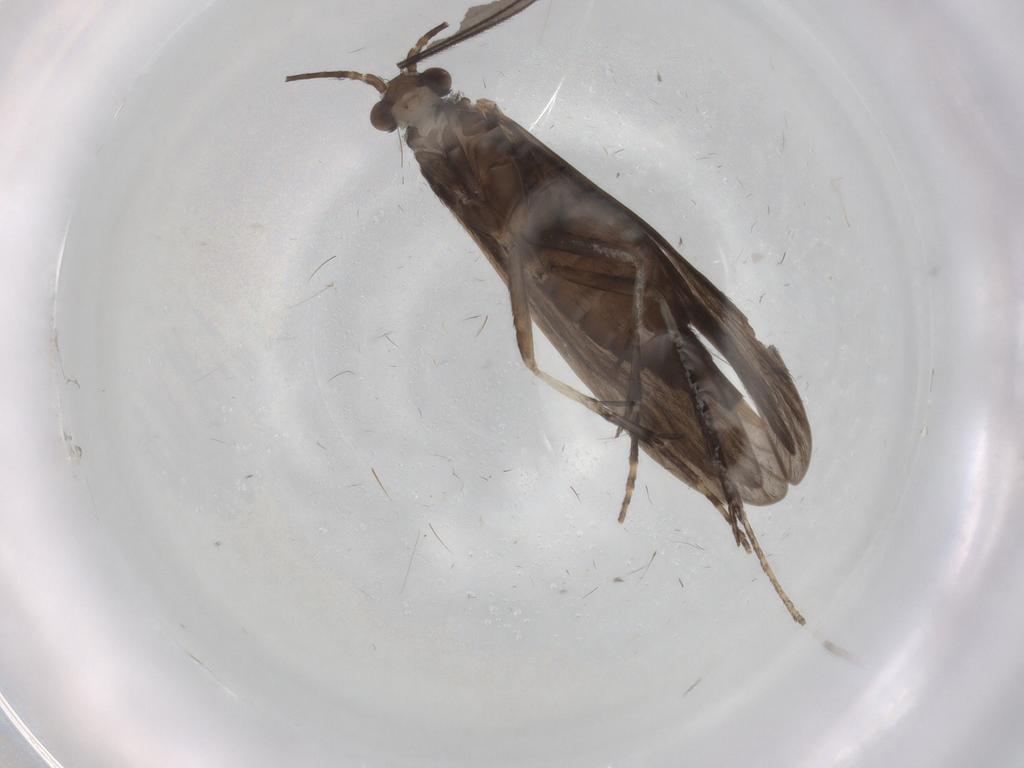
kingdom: Animalia
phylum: Arthropoda
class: Insecta
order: Trichoptera
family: Xiphocentronidae
